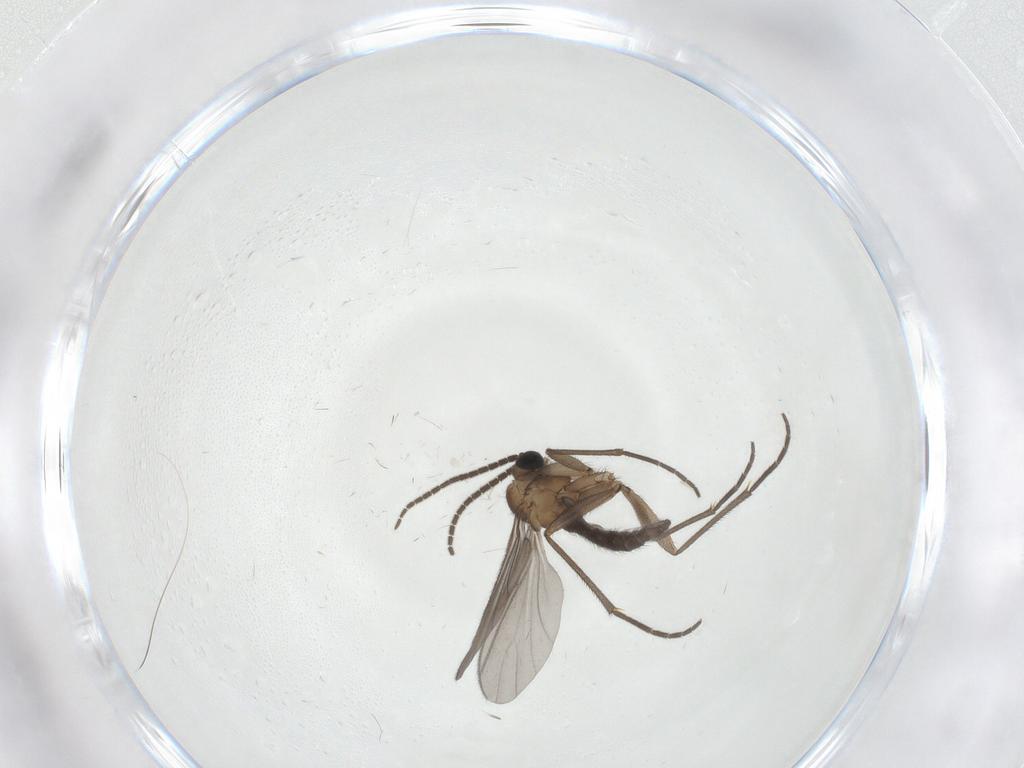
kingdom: Animalia
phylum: Arthropoda
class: Insecta
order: Diptera
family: Sciaridae
